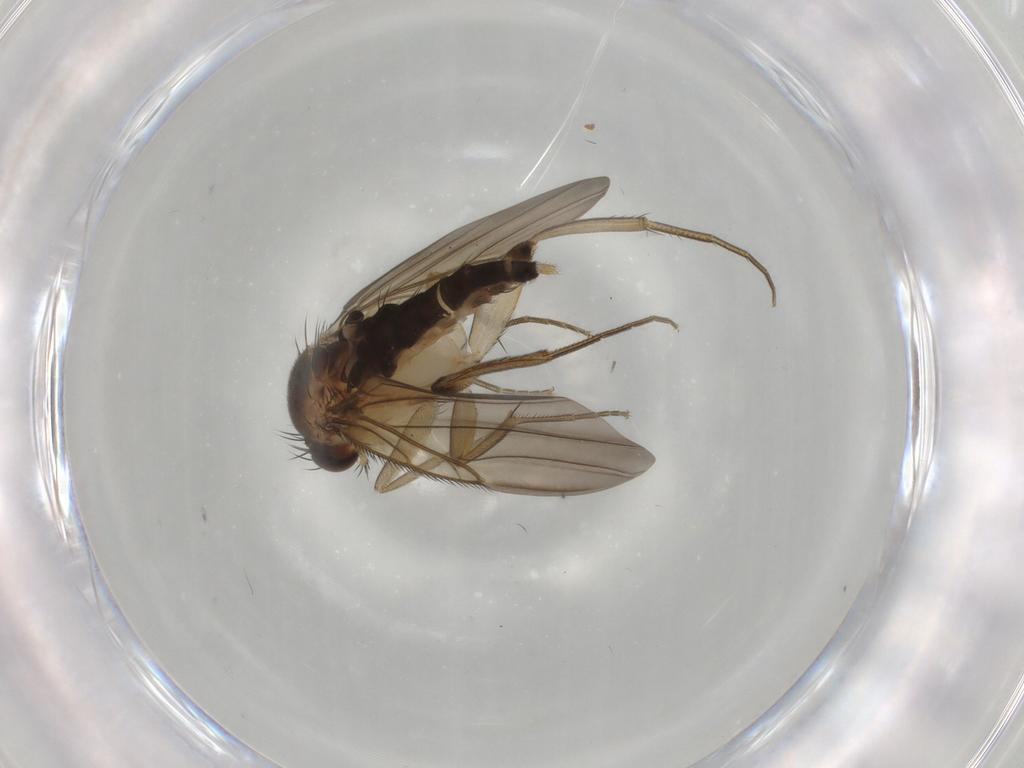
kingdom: Animalia
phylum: Arthropoda
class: Insecta
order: Diptera
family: Phoridae
